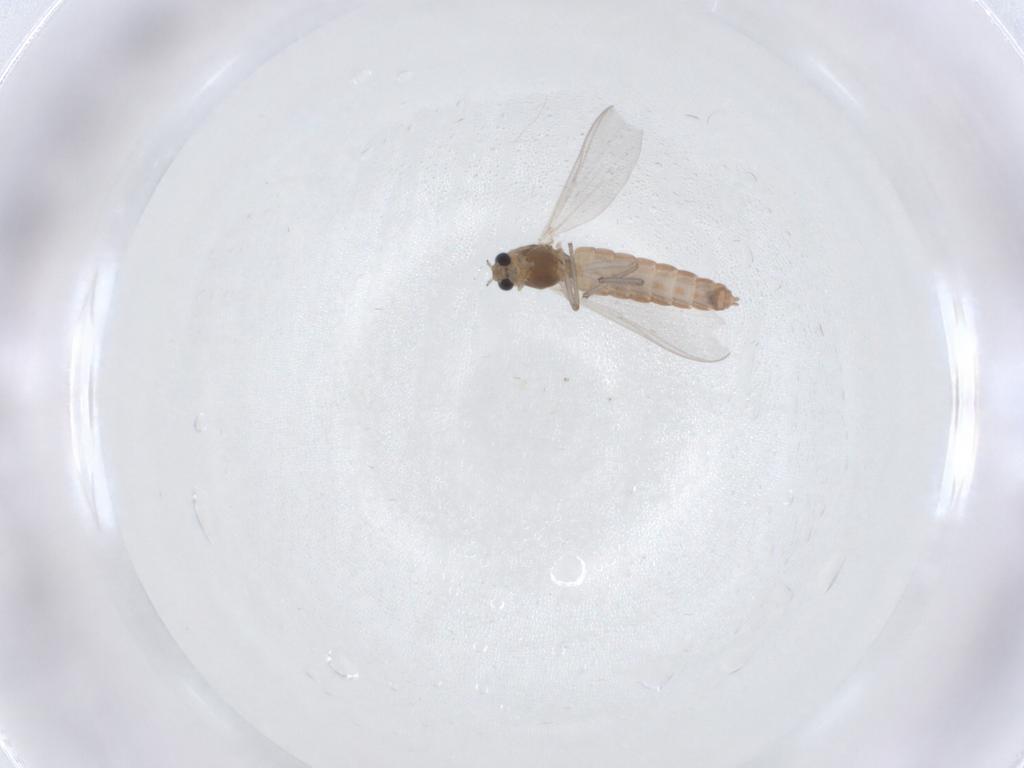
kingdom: Animalia
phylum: Arthropoda
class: Insecta
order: Diptera
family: Chironomidae
